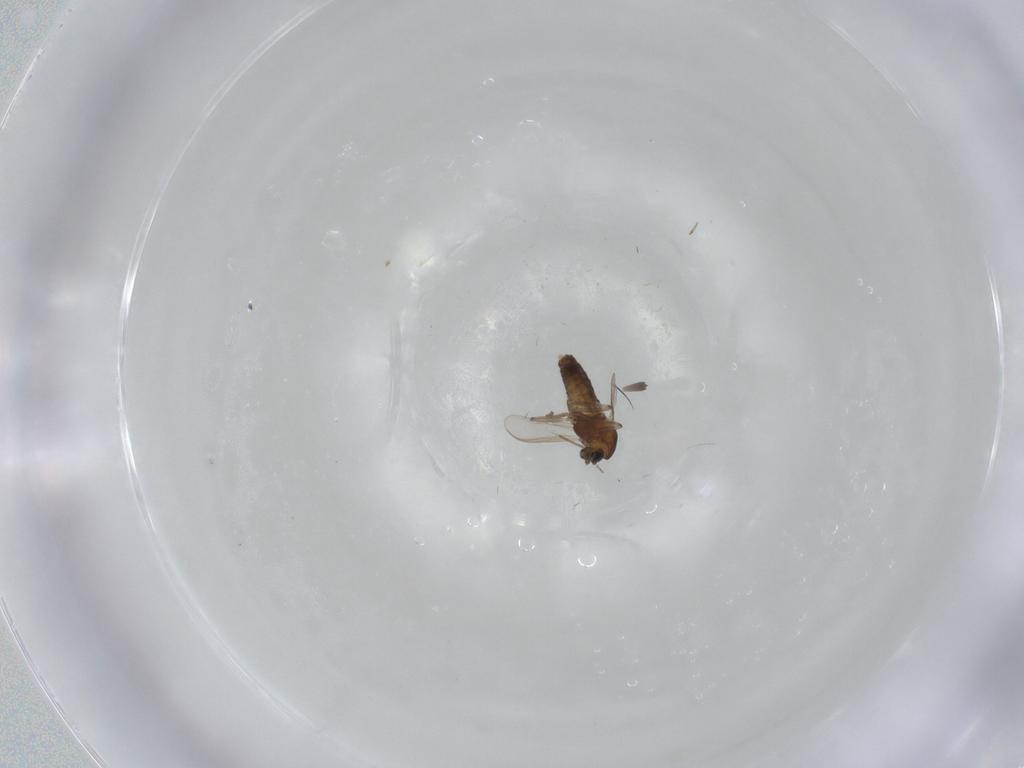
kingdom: Animalia
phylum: Arthropoda
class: Insecta
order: Diptera
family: Chironomidae
